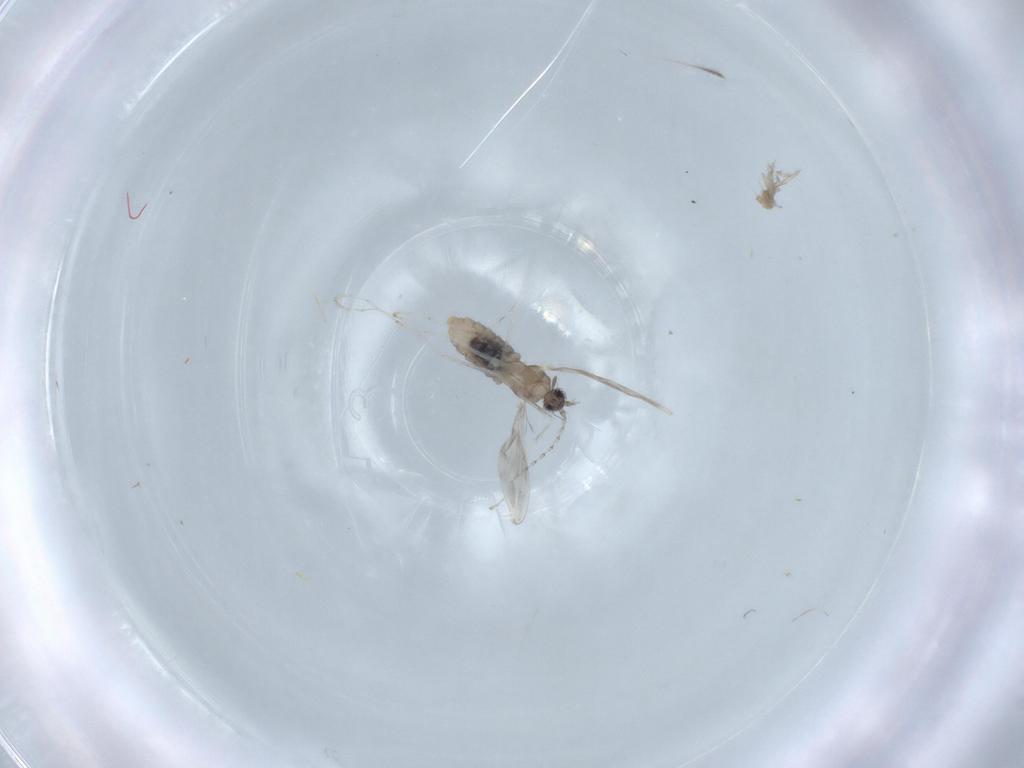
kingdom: Animalia
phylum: Arthropoda
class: Insecta
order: Diptera
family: Cecidomyiidae
